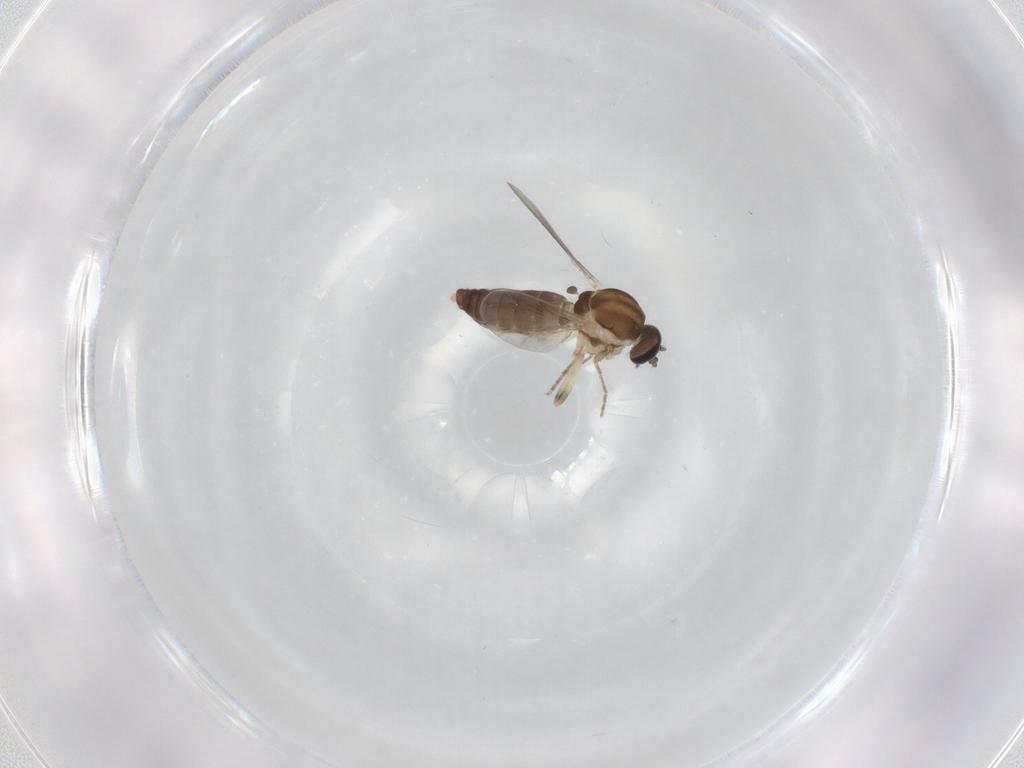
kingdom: Animalia
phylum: Arthropoda
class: Insecta
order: Diptera
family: Ceratopogonidae
